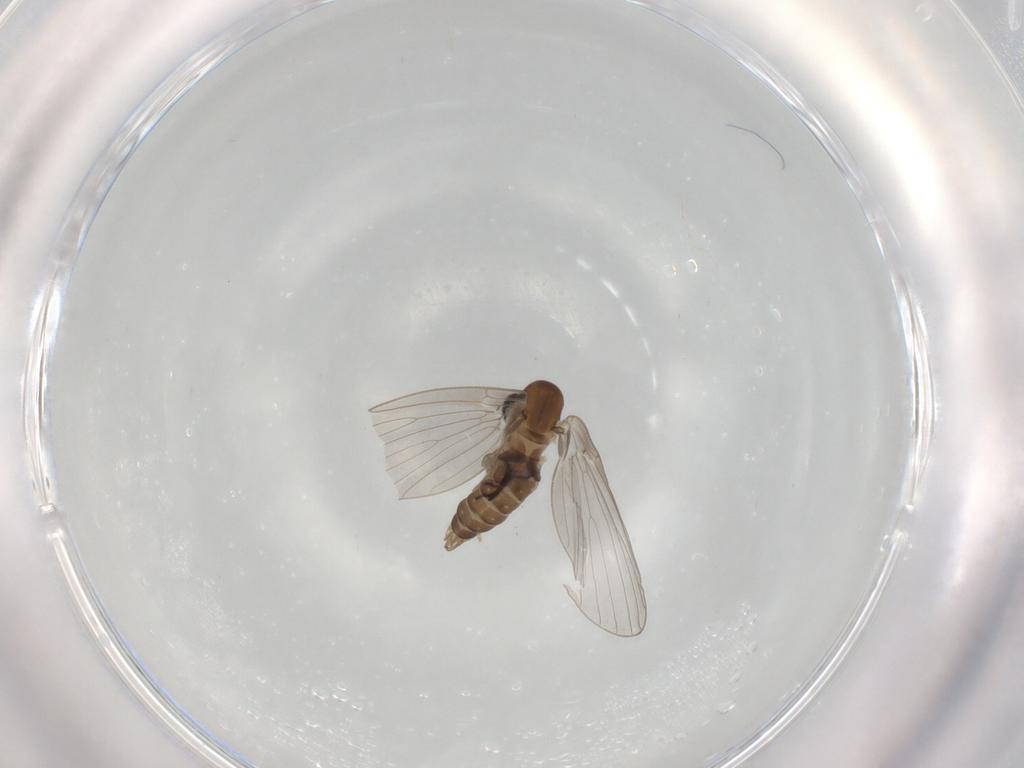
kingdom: Animalia
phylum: Arthropoda
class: Insecta
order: Diptera
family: Sciaridae
